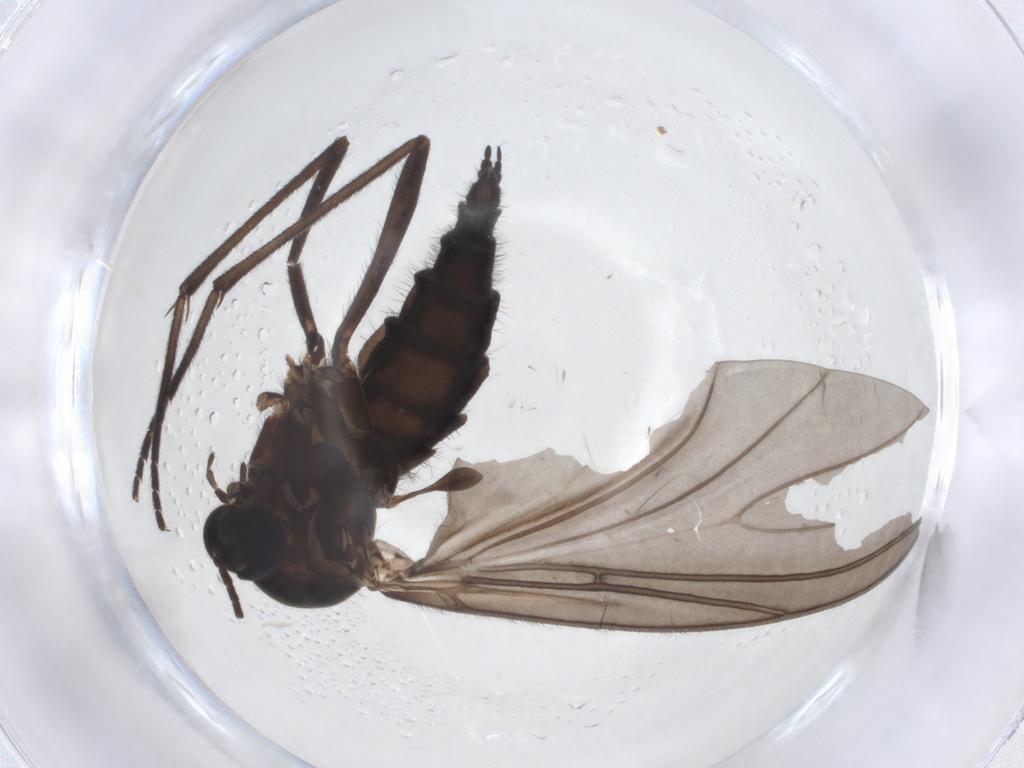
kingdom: Animalia
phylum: Arthropoda
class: Insecta
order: Diptera
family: Sciaridae
